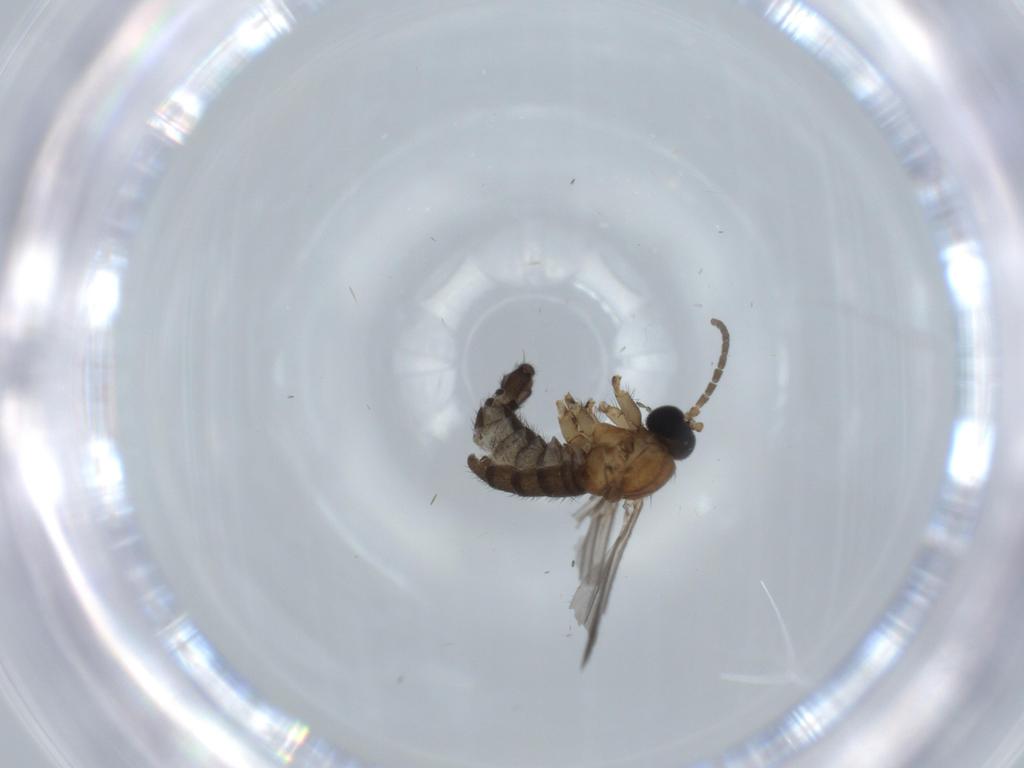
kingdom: Animalia
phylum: Arthropoda
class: Insecta
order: Diptera
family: Sciaridae
